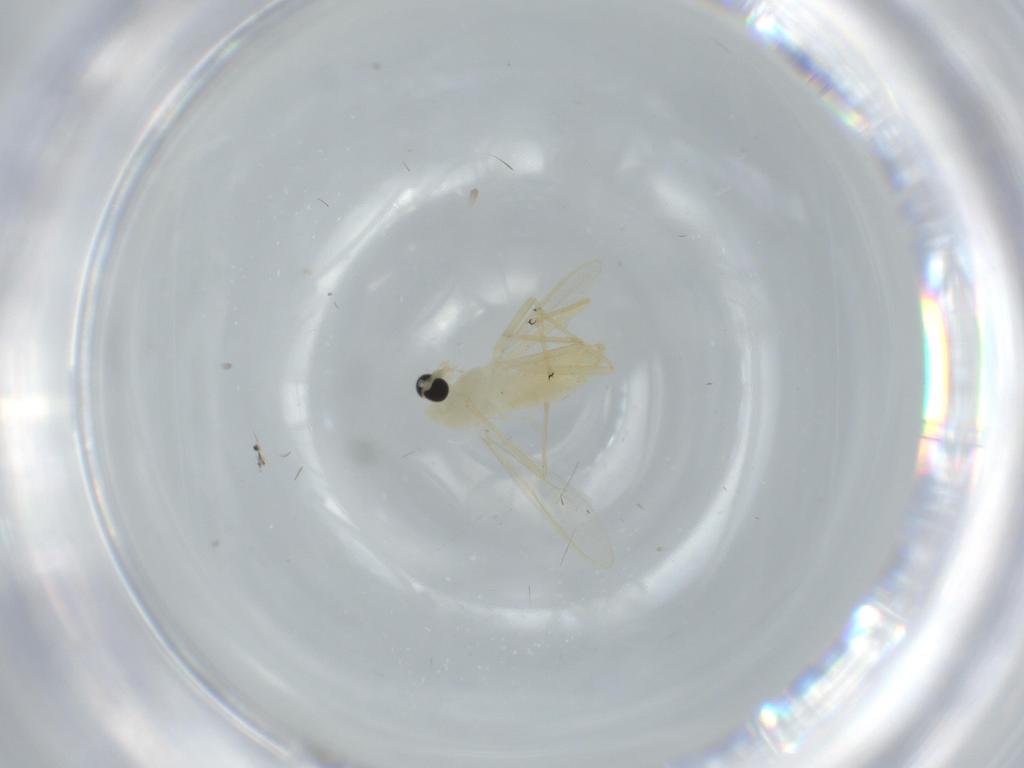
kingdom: Animalia
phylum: Arthropoda
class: Insecta
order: Diptera
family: Chironomidae
